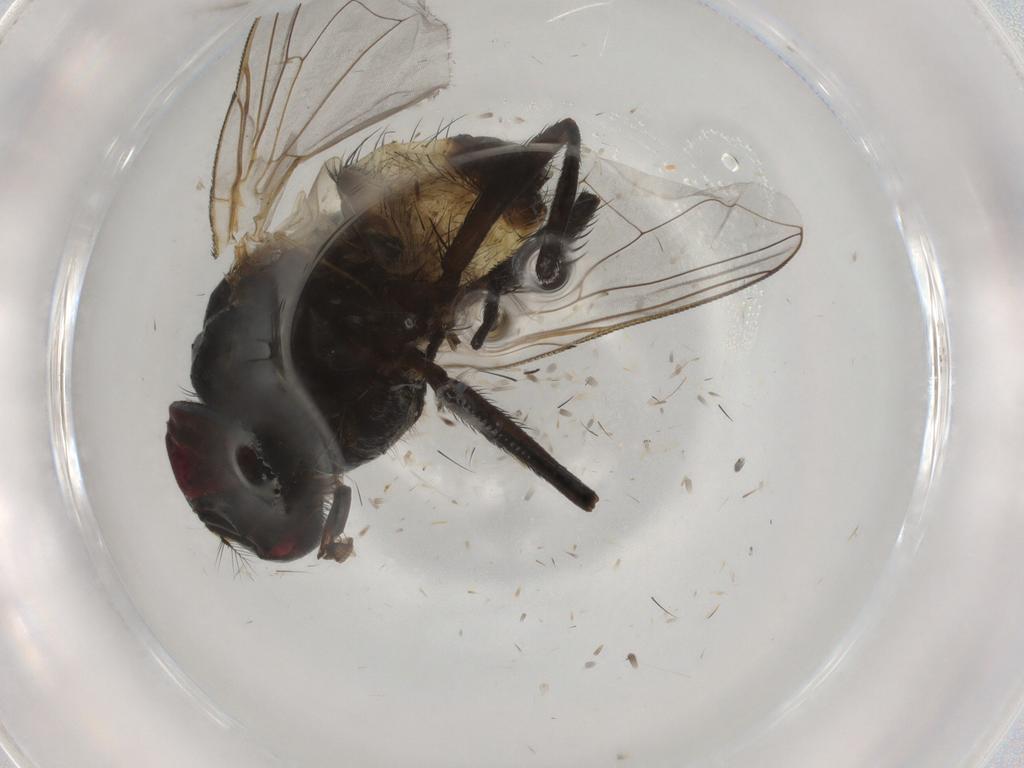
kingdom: Animalia
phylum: Arthropoda
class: Insecta
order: Diptera
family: Muscidae
